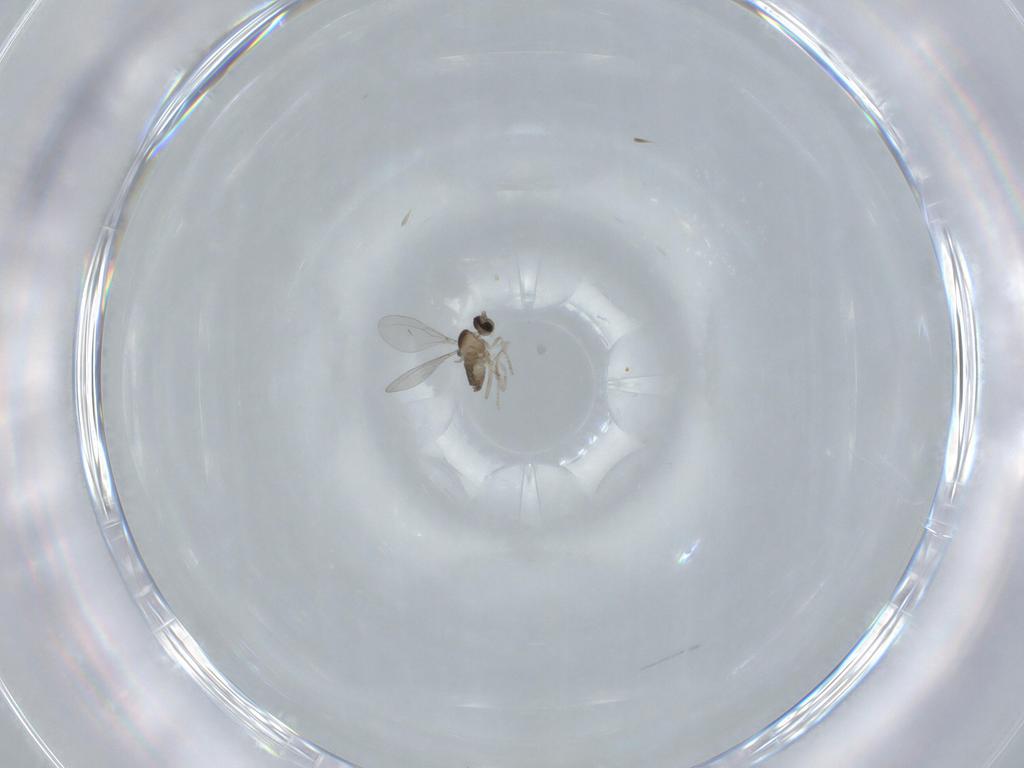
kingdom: Animalia
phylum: Arthropoda
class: Insecta
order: Diptera
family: Cecidomyiidae
